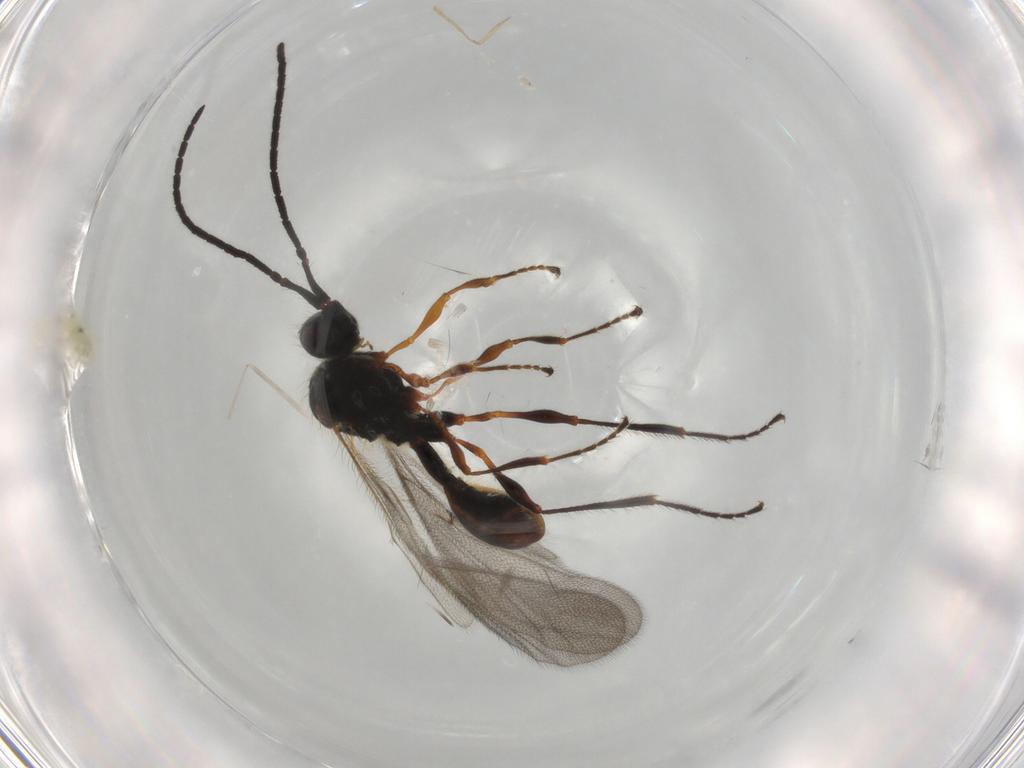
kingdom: Animalia
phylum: Arthropoda
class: Insecta
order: Hymenoptera
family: Diapriidae
